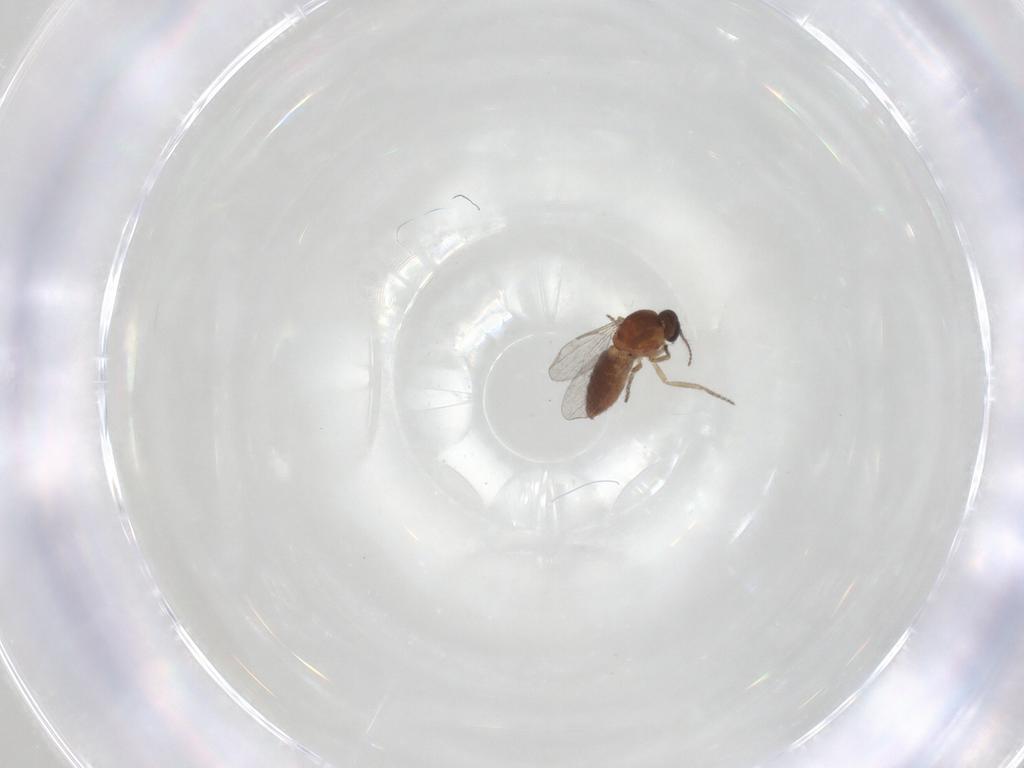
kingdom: Animalia
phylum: Arthropoda
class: Insecta
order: Diptera
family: Ceratopogonidae
